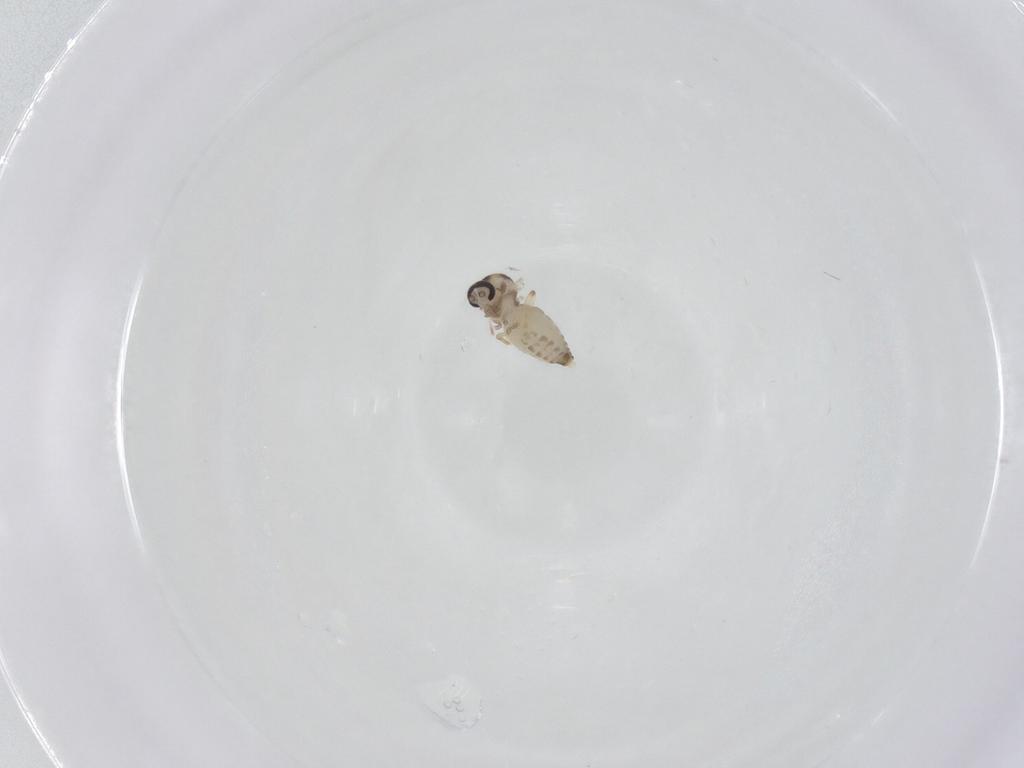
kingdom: Animalia
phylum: Arthropoda
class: Insecta
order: Diptera
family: Ceratopogonidae
